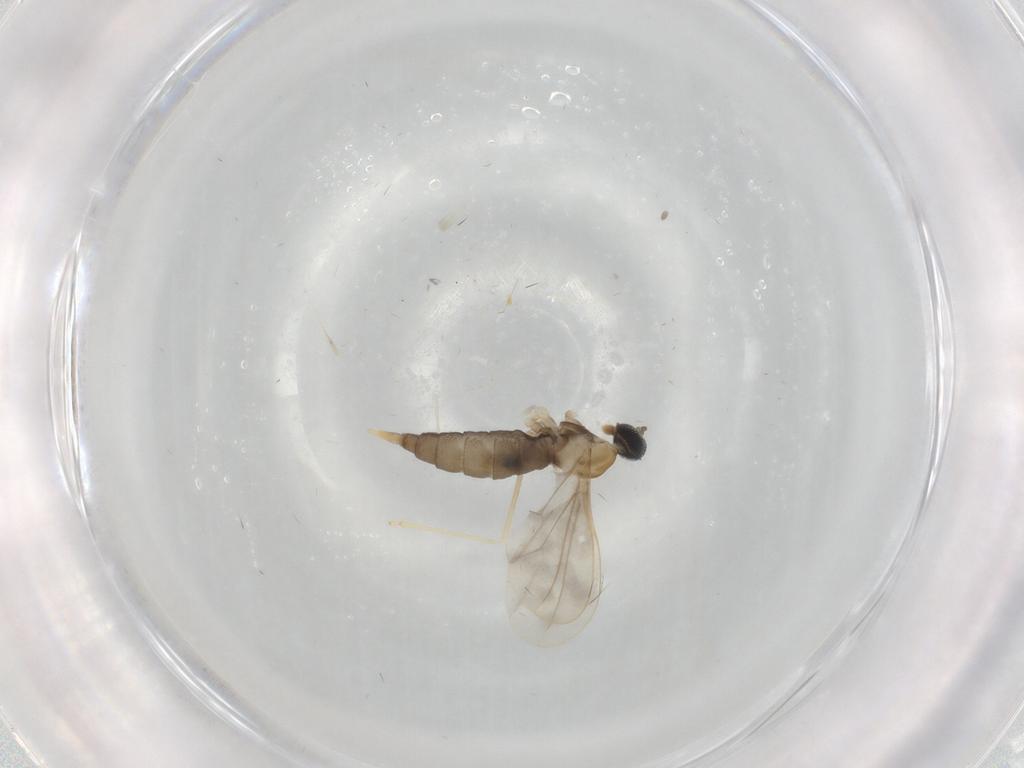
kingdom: Animalia
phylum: Arthropoda
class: Insecta
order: Diptera
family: Cecidomyiidae
